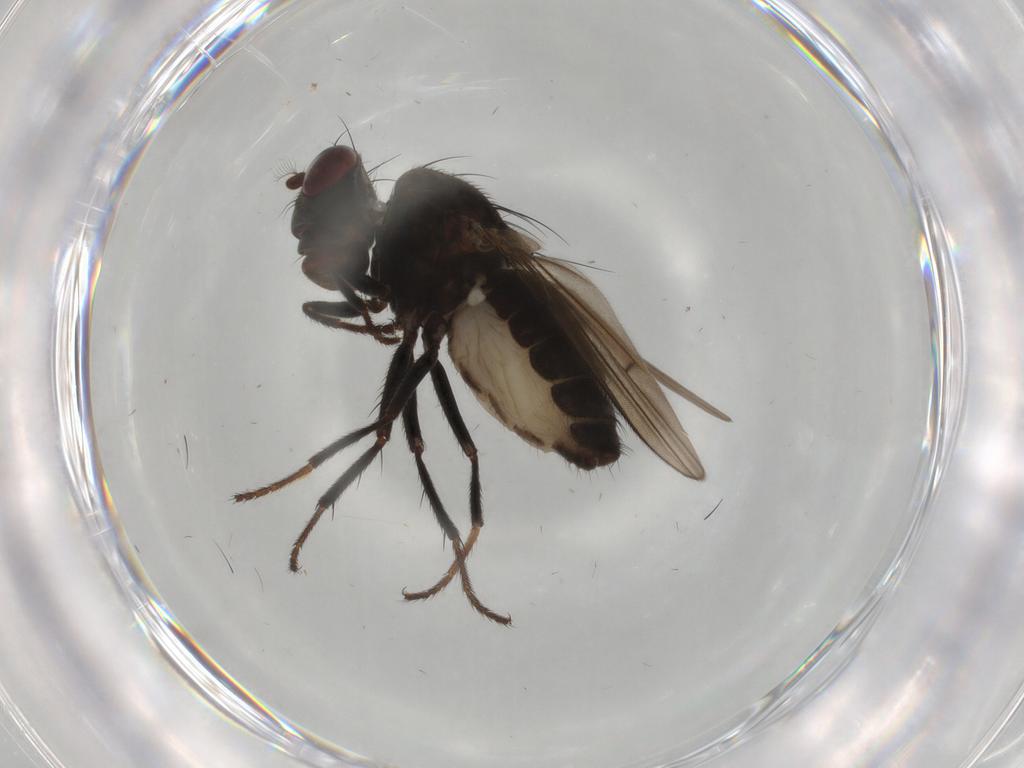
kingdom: Animalia
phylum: Arthropoda
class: Insecta
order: Diptera
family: Ephydridae
